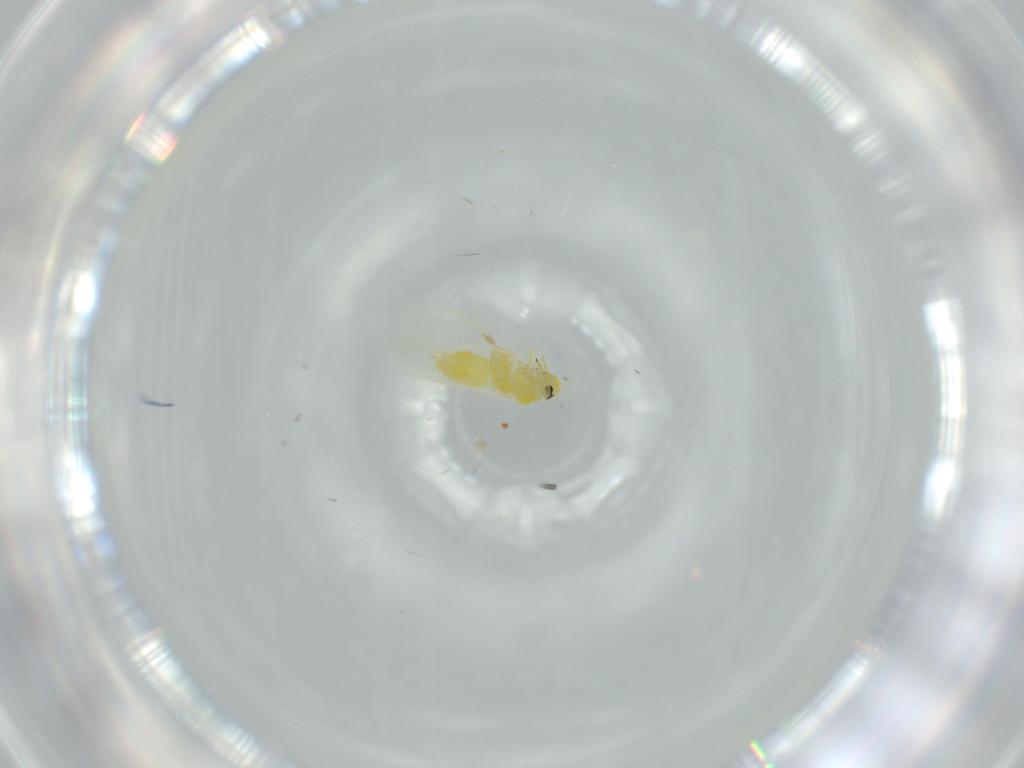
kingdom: Animalia
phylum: Arthropoda
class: Insecta
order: Hemiptera
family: Aleyrodidae
